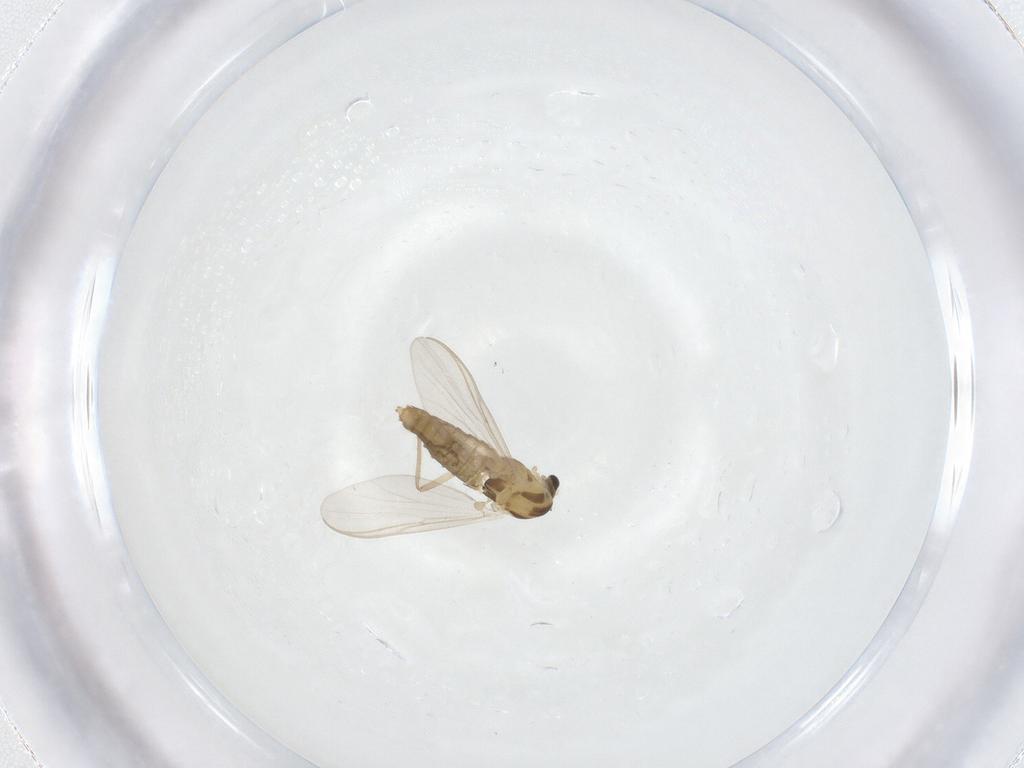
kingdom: Animalia
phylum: Arthropoda
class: Insecta
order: Diptera
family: Chironomidae
